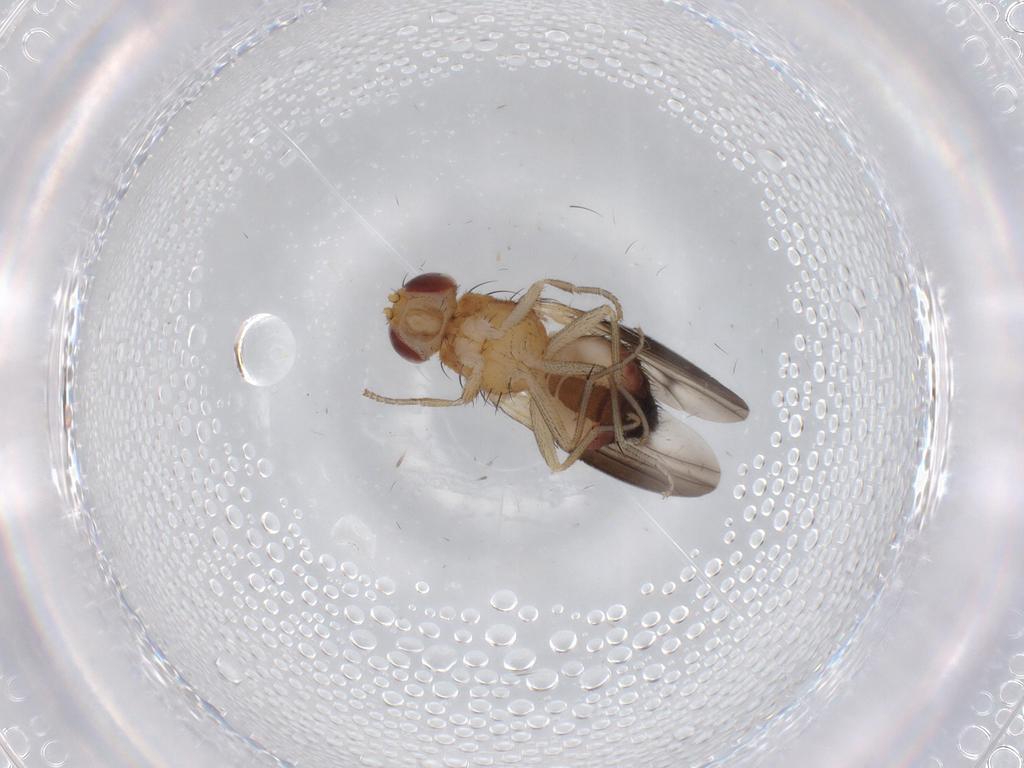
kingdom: Animalia
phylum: Arthropoda
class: Insecta
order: Diptera
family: Heleomyzidae
